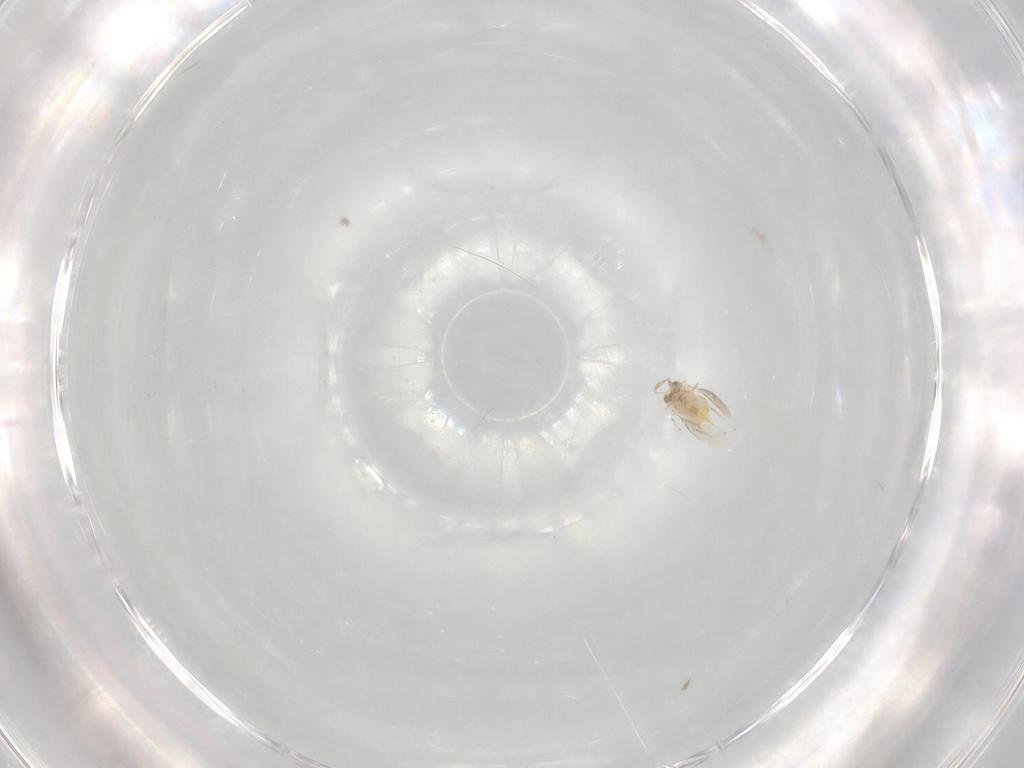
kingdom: Animalia
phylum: Arthropoda
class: Insecta
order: Hymenoptera
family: Aphelinidae
